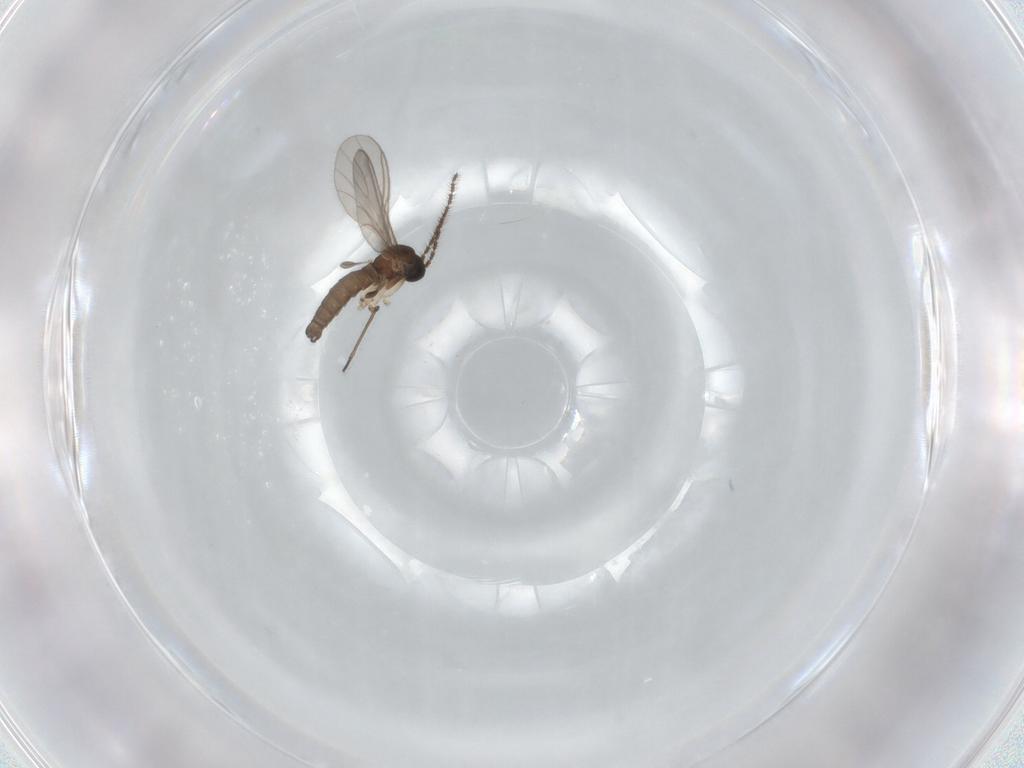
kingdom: Animalia
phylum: Arthropoda
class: Insecta
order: Diptera
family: Sciaridae
